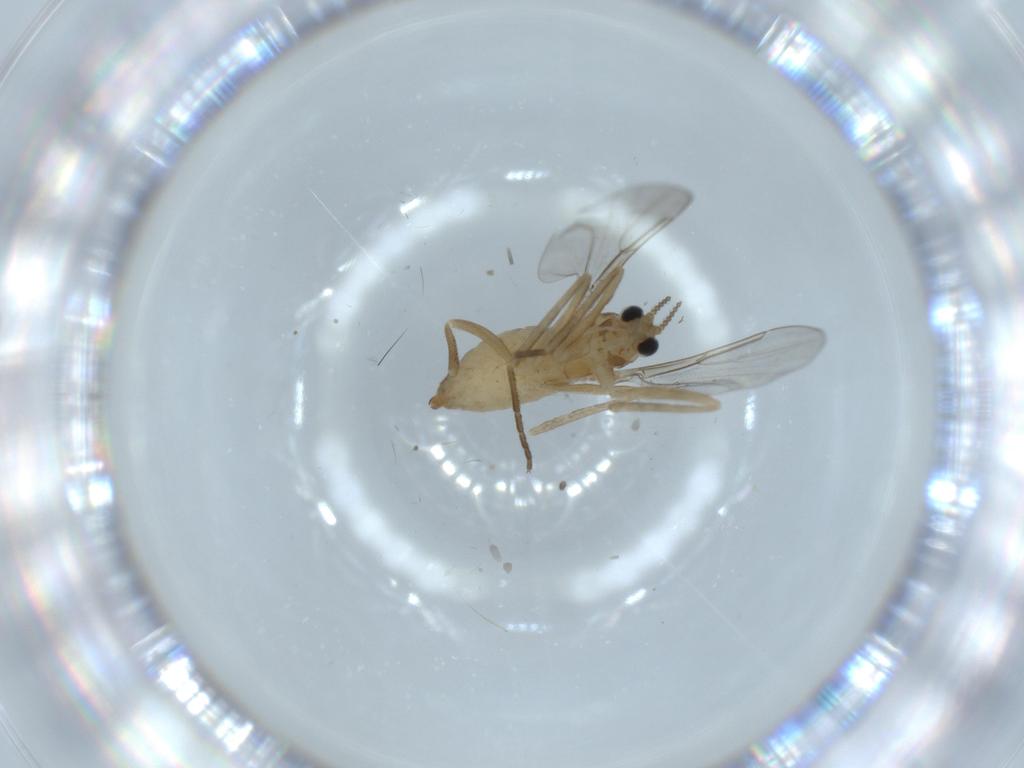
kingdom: Animalia
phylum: Arthropoda
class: Insecta
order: Diptera
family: Cecidomyiidae
